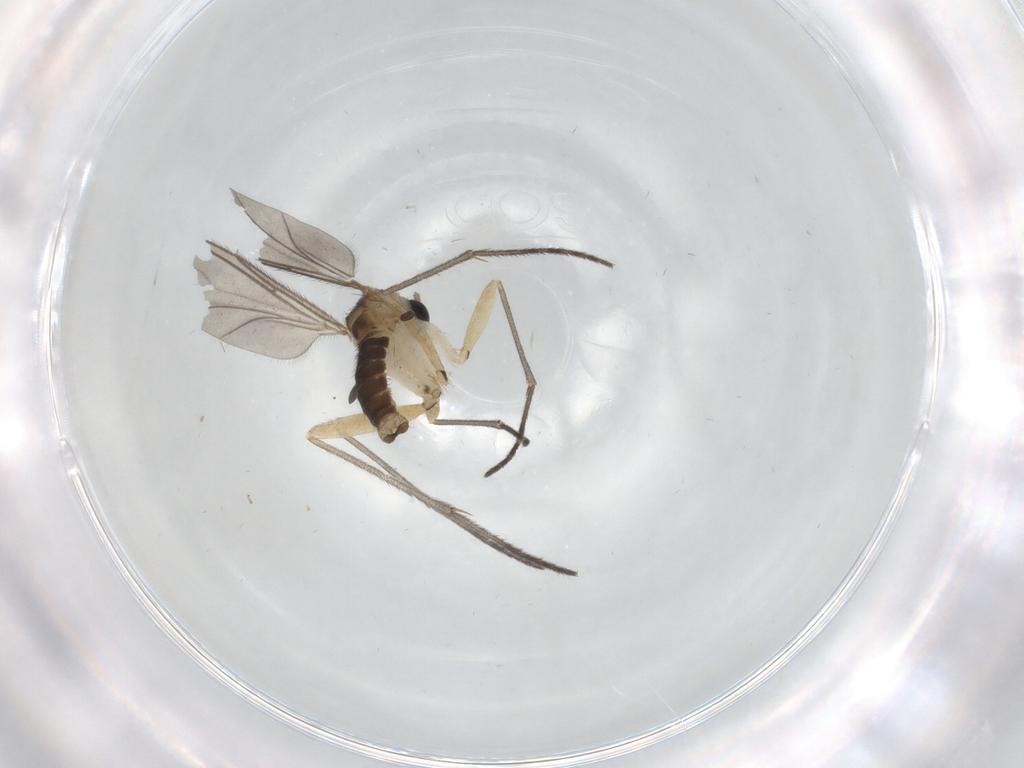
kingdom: Animalia
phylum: Arthropoda
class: Insecta
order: Diptera
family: Sciaridae
